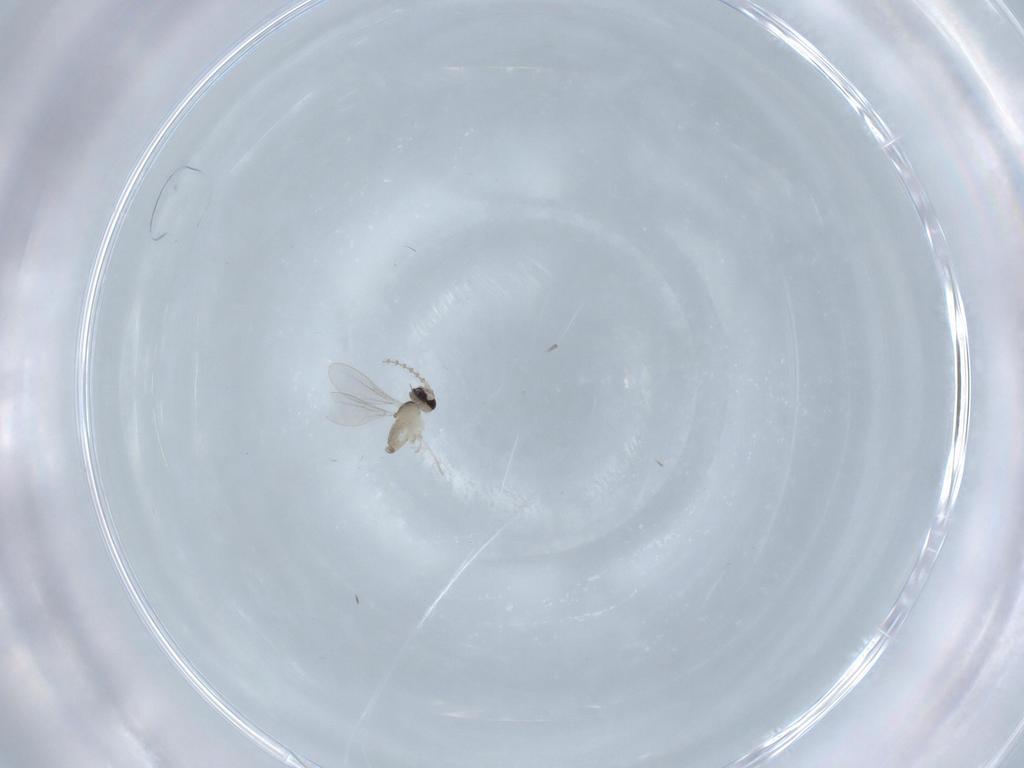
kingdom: Animalia
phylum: Arthropoda
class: Insecta
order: Diptera
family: Cecidomyiidae
